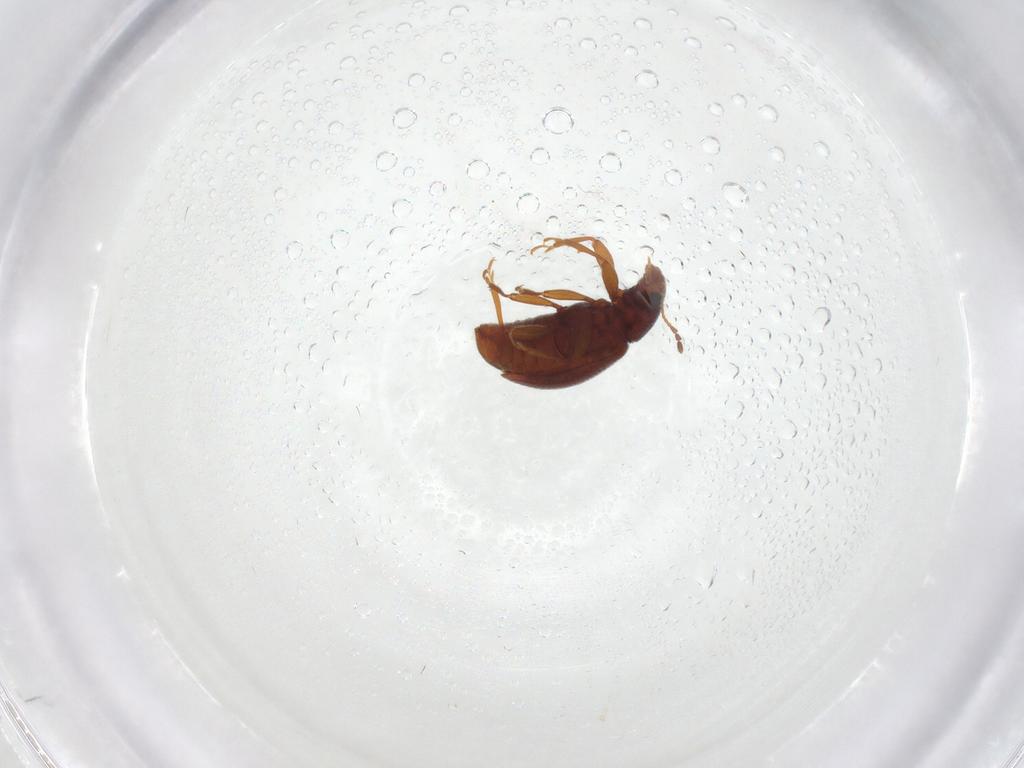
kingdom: Animalia
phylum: Arthropoda
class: Insecta
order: Coleoptera
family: Latridiidae
